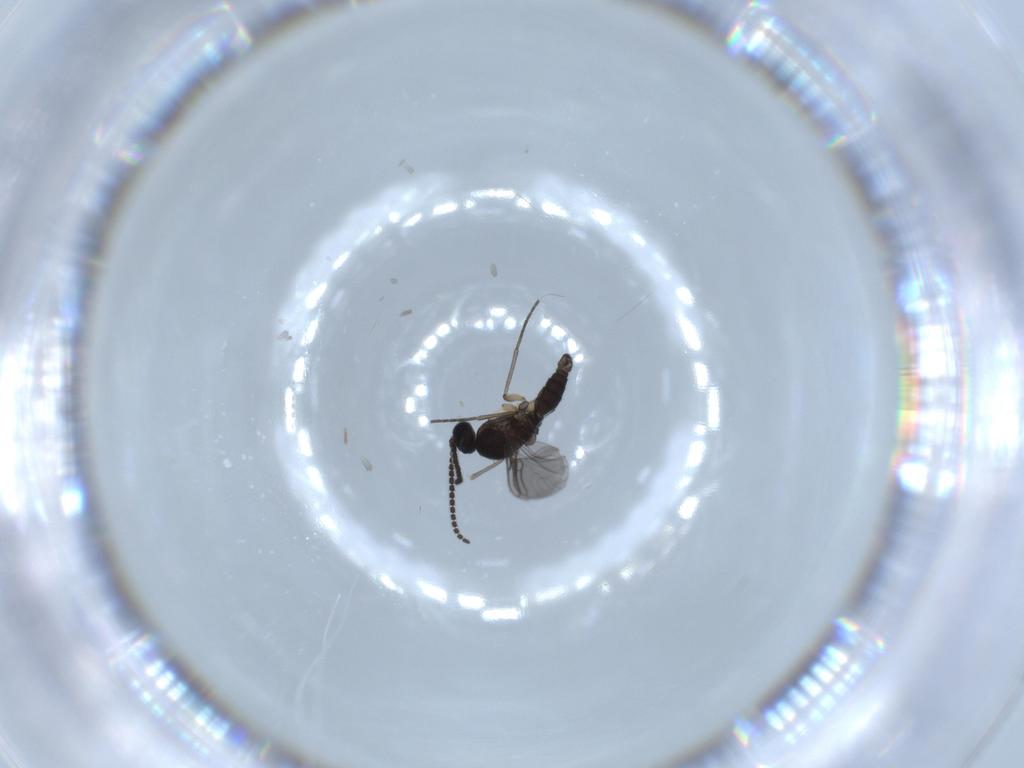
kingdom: Animalia
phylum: Arthropoda
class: Insecta
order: Diptera
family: Sciaridae
